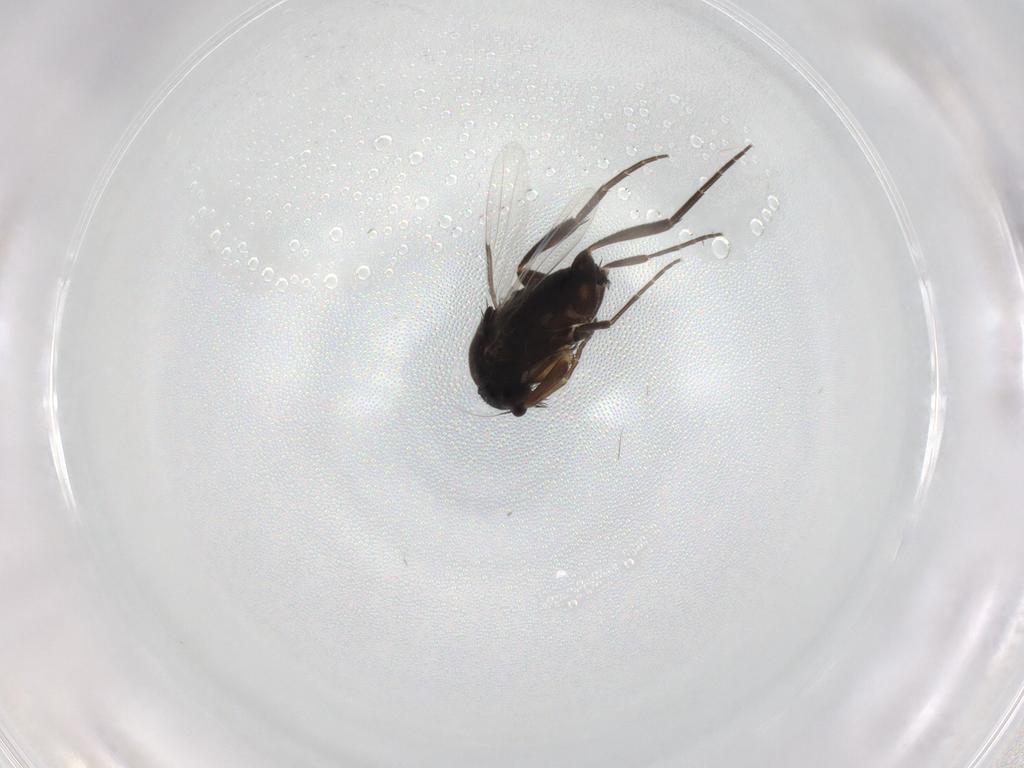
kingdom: Animalia
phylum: Arthropoda
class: Insecta
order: Diptera
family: Phoridae
